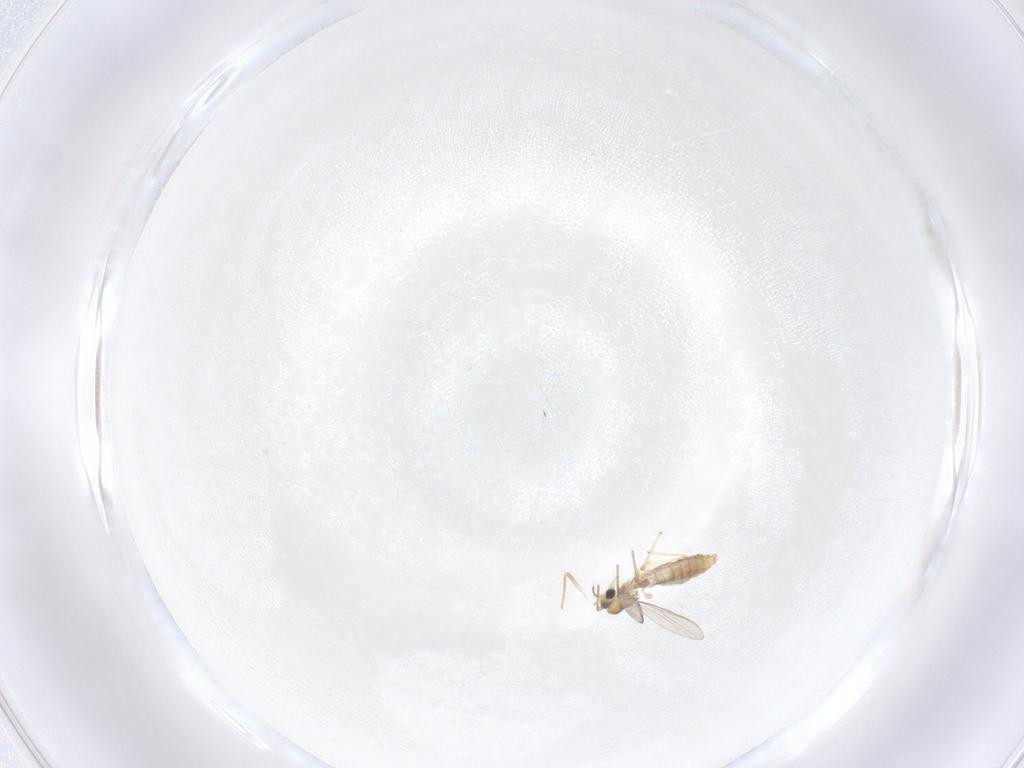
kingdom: Animalia
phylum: Arthropoda
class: Insecta
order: Diptera
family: Chironomidae
